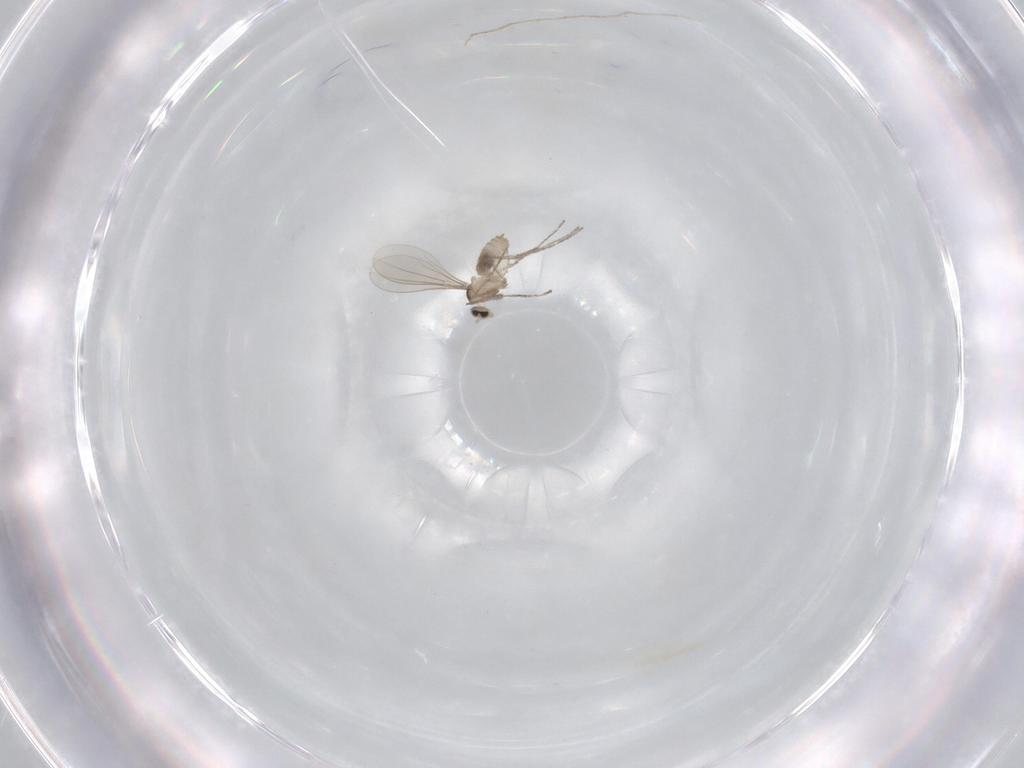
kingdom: Animalia
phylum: Arthropoda
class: Insecta
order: Diptera
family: Cecidomyiidae
